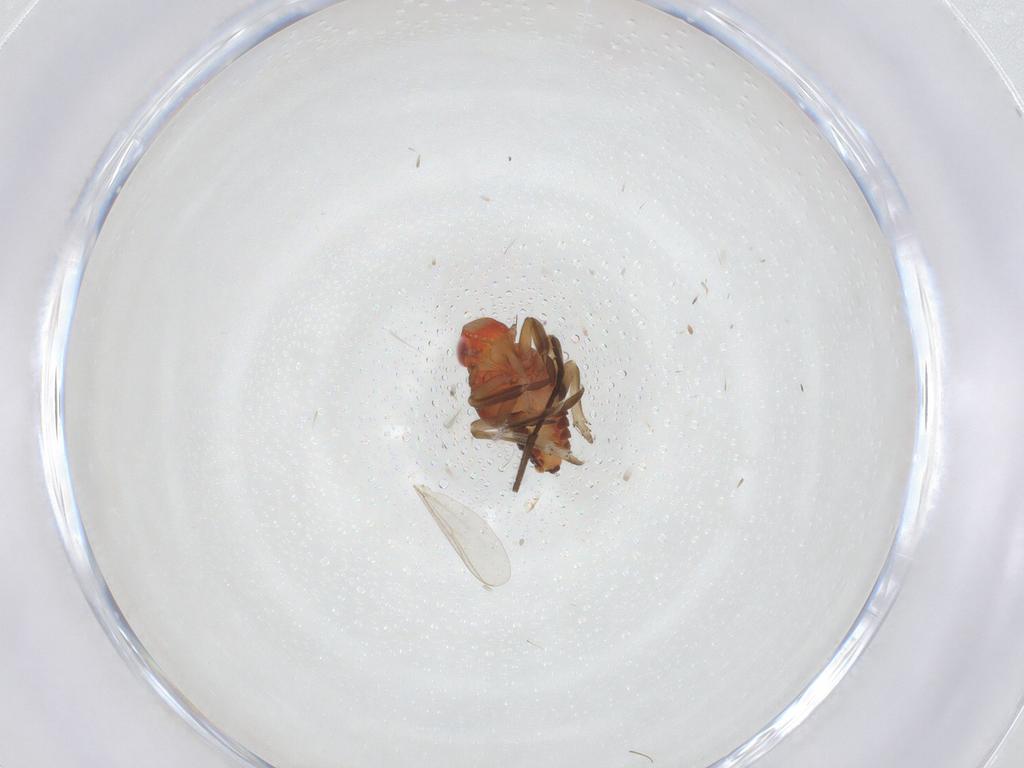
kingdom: Animalia
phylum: Arthropoda
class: Insecta
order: Hemiptera
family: Fulgoroidea_incertae_sedis
